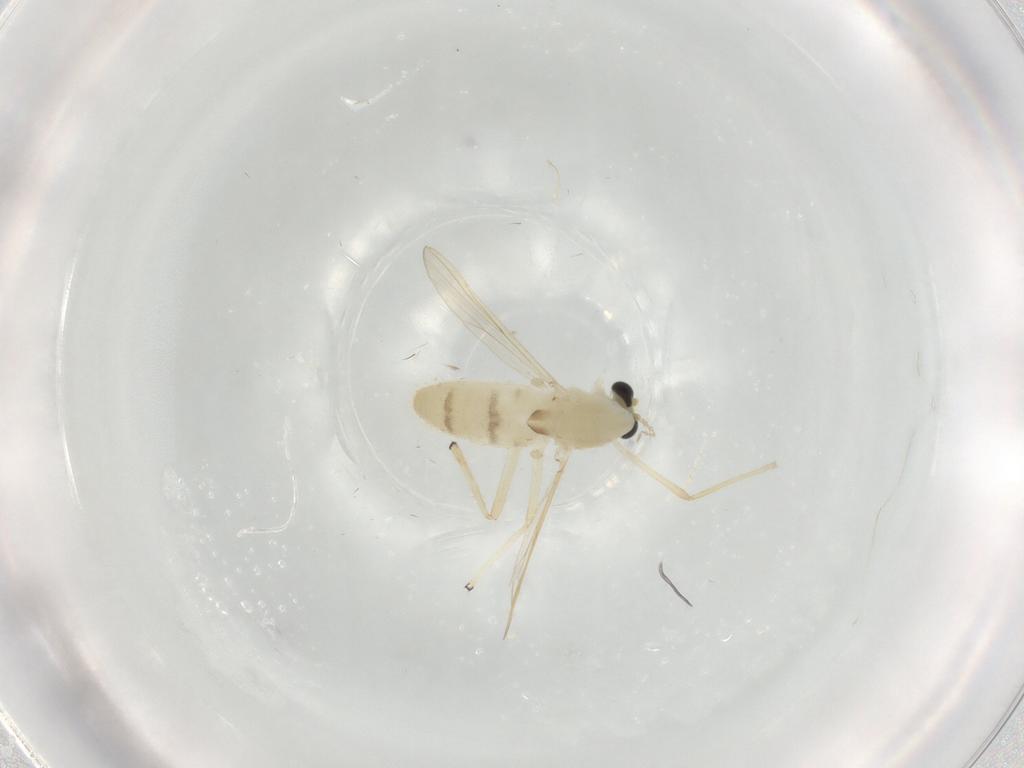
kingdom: Animalia
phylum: Arthropoda
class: Insecta
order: Diptera
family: Chironomidae
